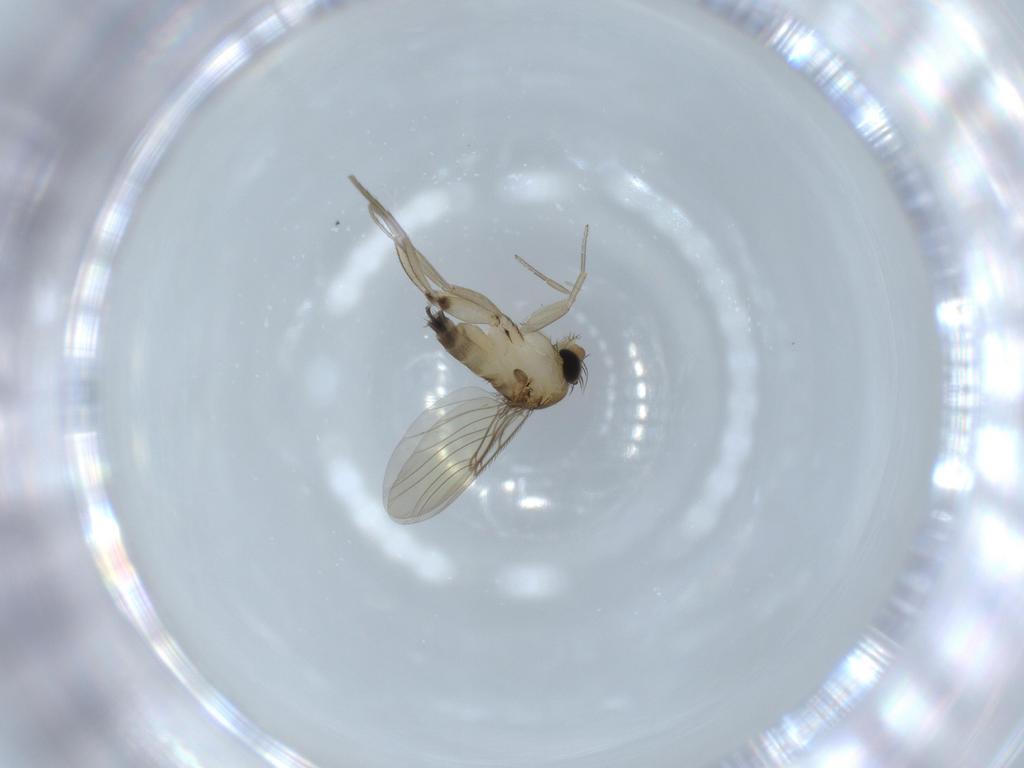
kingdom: Animalia
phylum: Arthropoda
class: Insecta
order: Diptera
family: Phoridae
